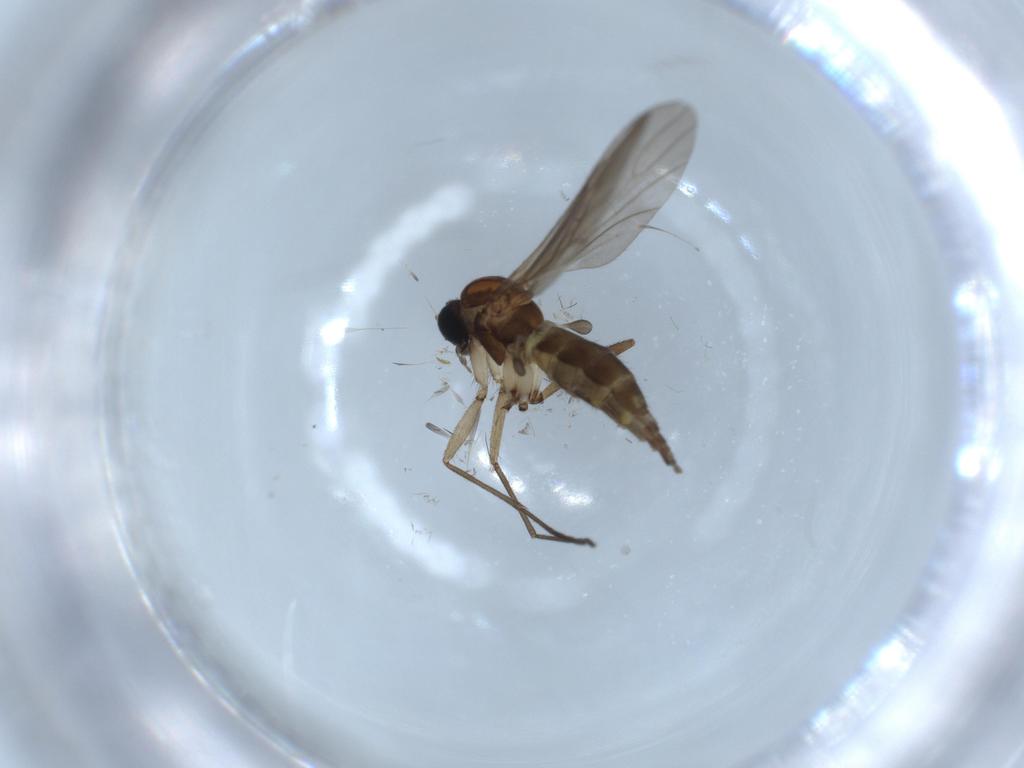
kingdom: Animalia
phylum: Arthropoda
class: Insecta
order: Diptera
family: Sciaridae
